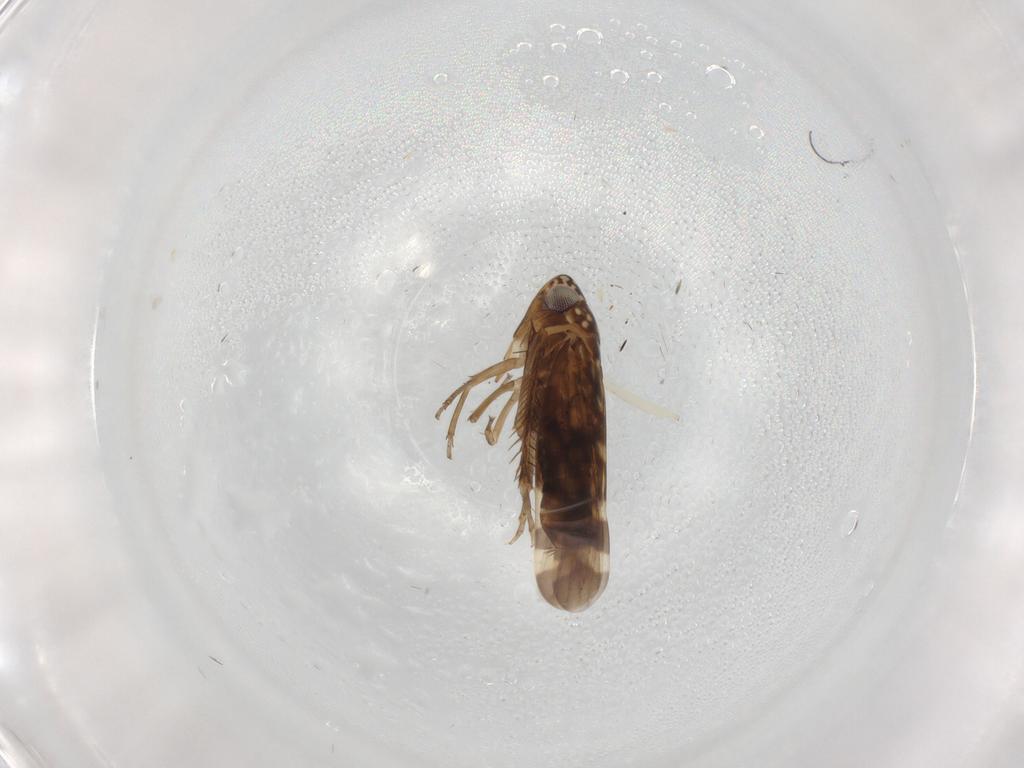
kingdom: Animalia
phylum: Arthropoda
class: Insecta
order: Hemiptera
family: Cicadellidae
